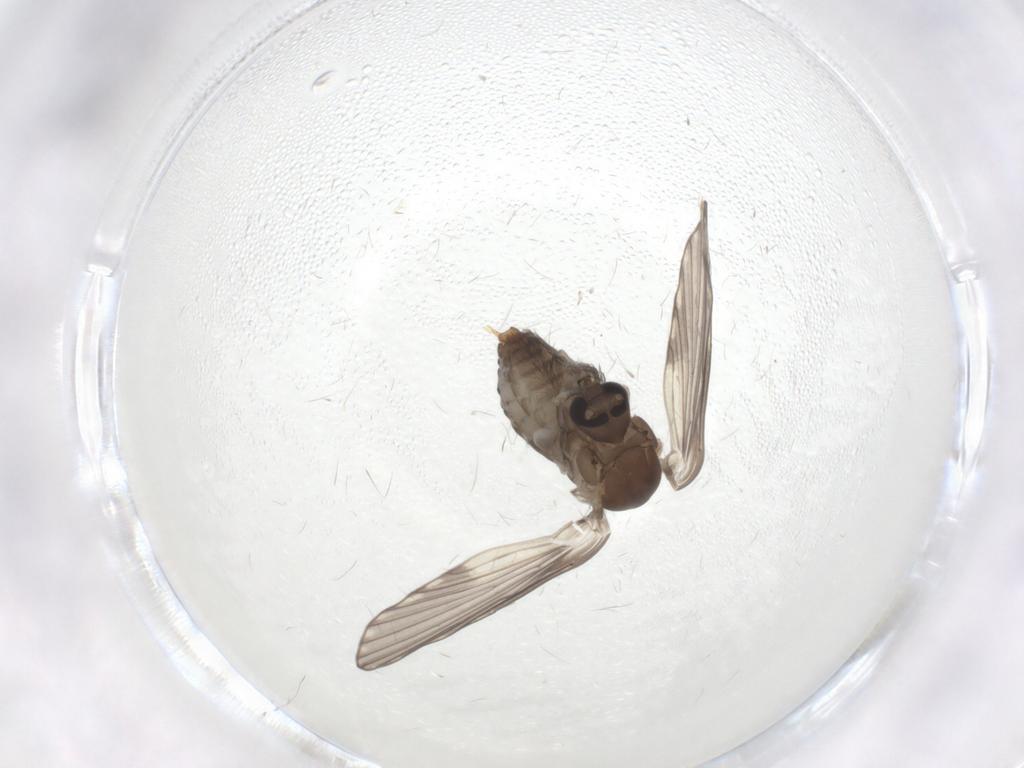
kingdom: Animalia
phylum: Arthropoda
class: Insecta
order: Diptera
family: Psychodidae
